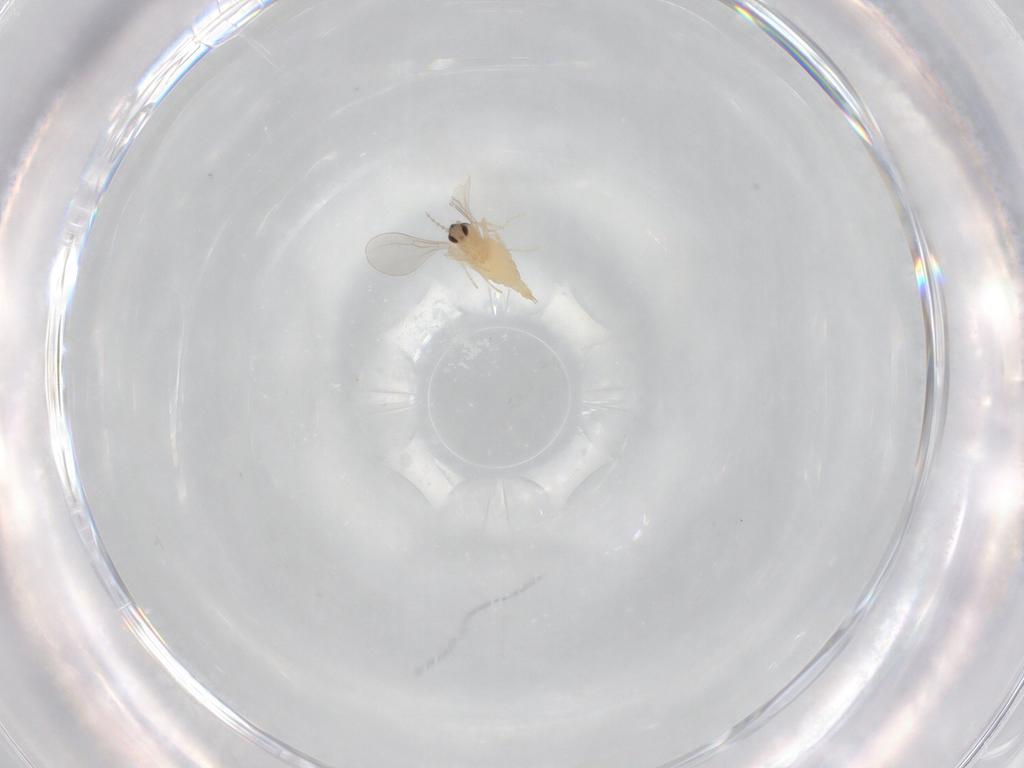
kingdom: Animalia
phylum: Arthropoda
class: Insecta
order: Diptera
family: Cecidomyiidae
